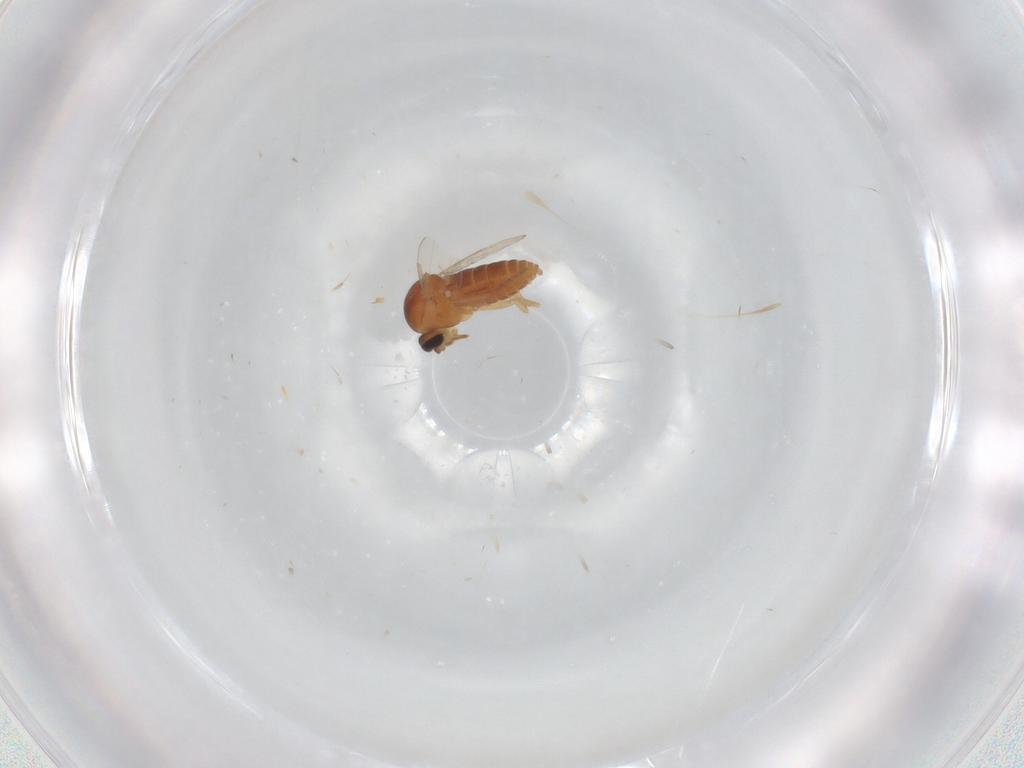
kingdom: Animalia
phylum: Arthropoda
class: Insecta
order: Diptera
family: Ceratopogonidae
